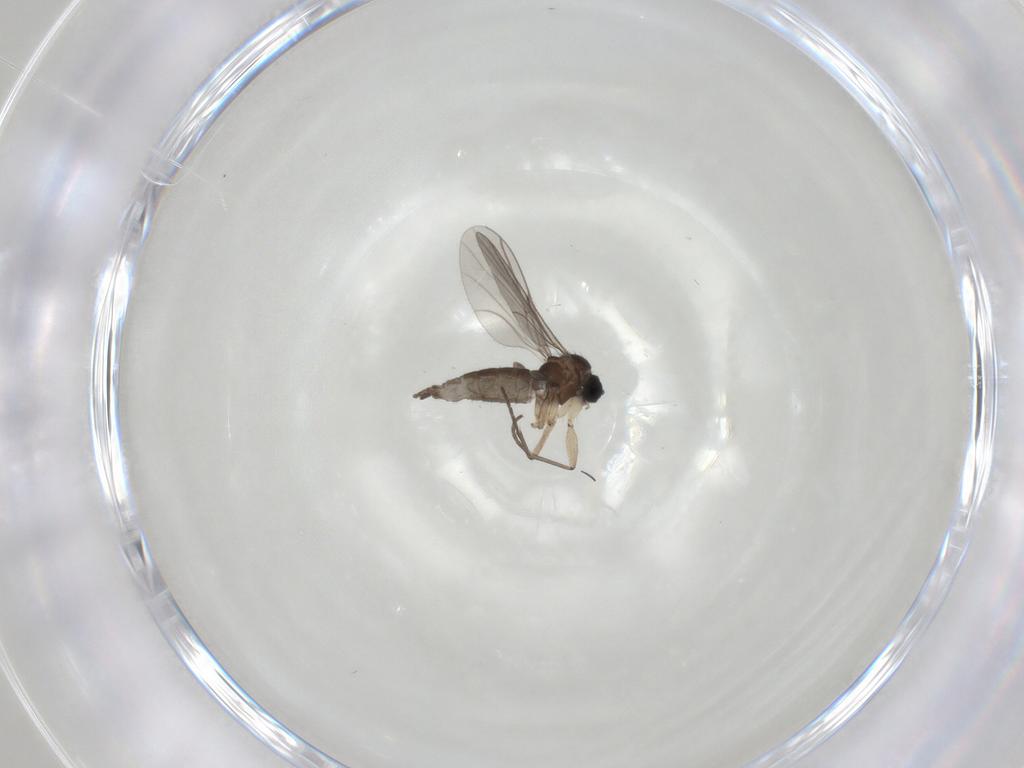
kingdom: Animalia
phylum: Arthropoda
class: Insecta
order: Diptera
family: Sciaridae
